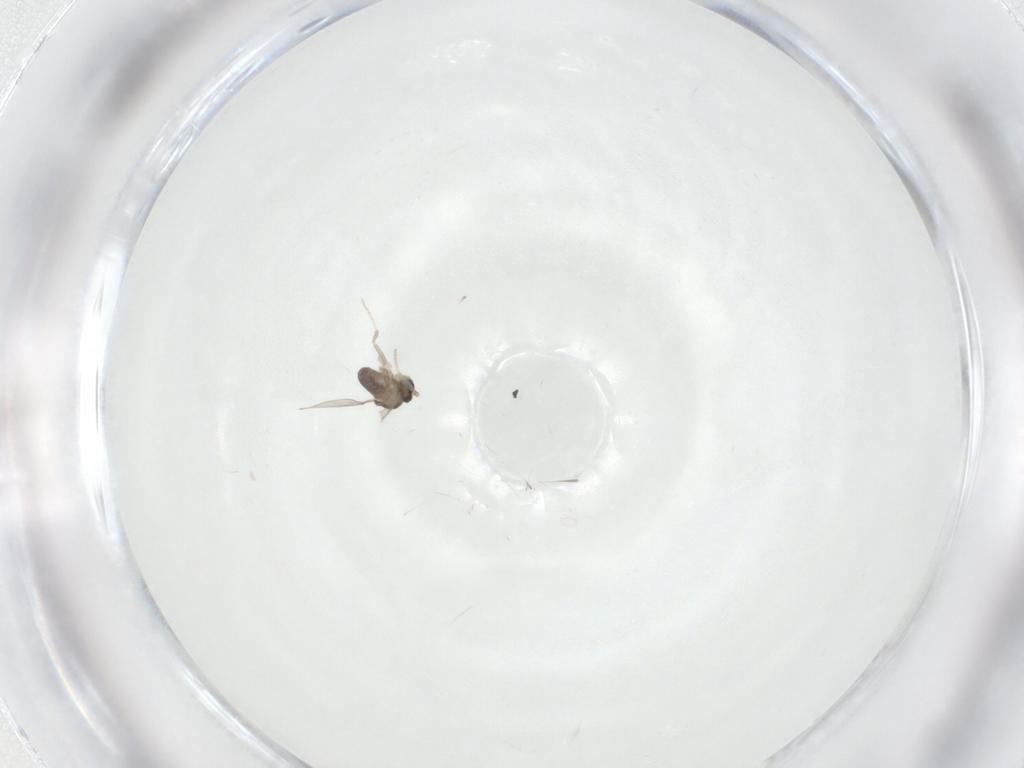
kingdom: Animalia
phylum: Arthropoda
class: Insecta
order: Diptera
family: Cecidomyiidae
